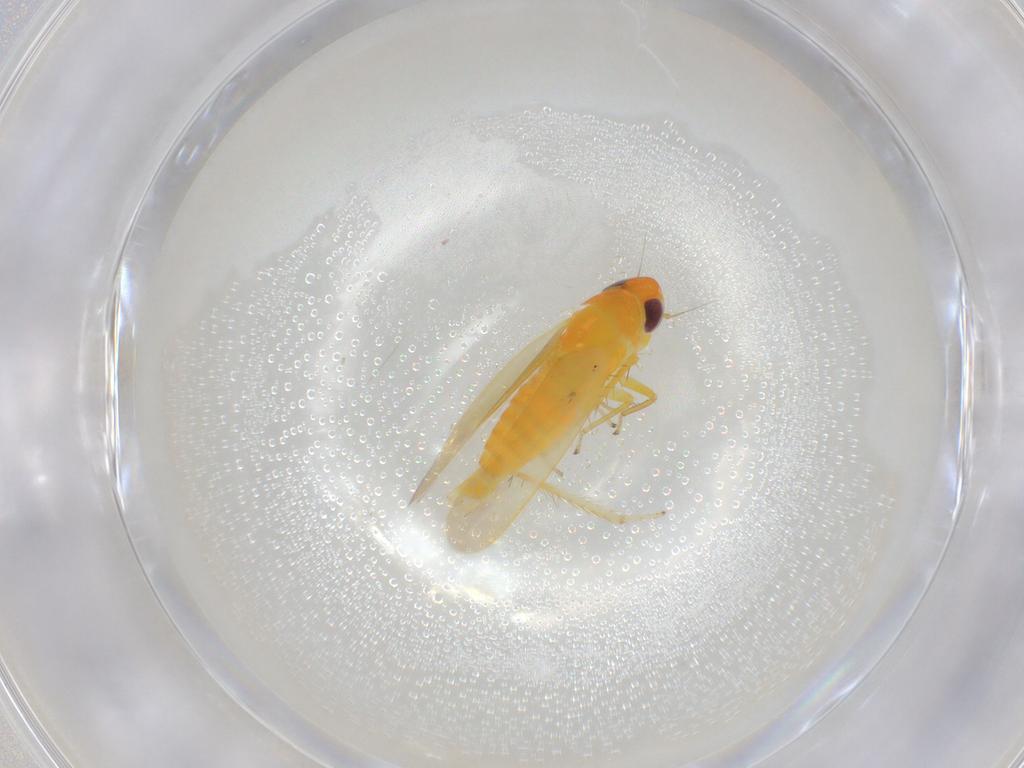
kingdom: Animalia
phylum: Arthropoda
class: Insecta
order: Hemiptera
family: Cicadellidae
